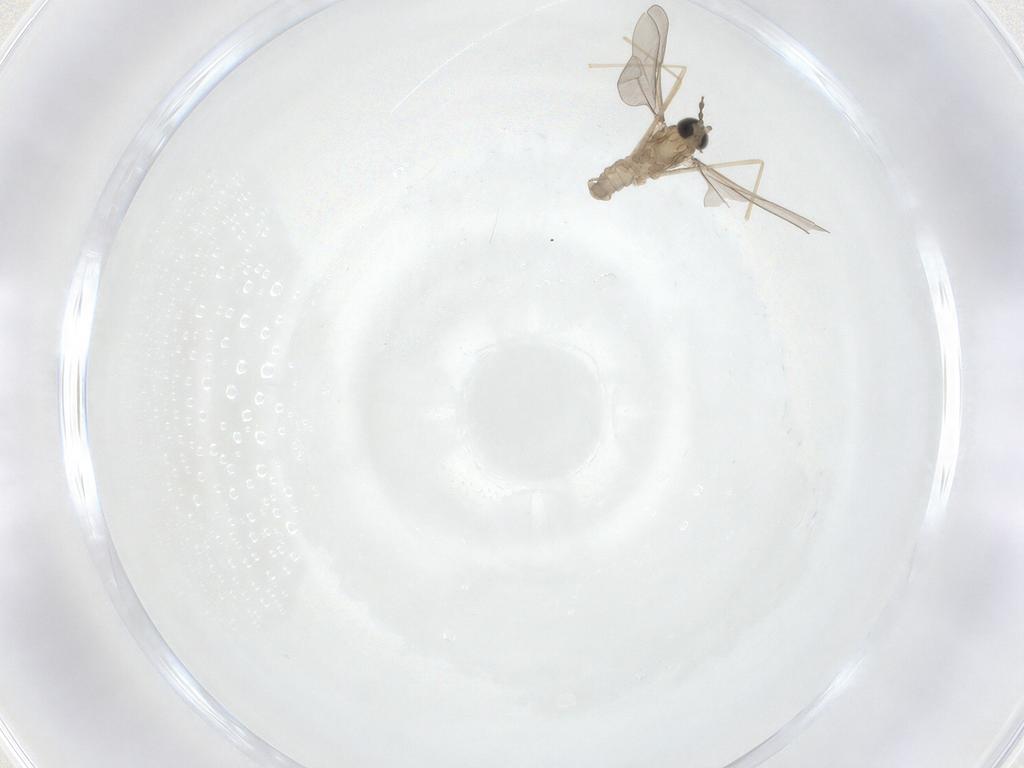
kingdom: Animalia
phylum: Arthropoda
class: Insecta
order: Diptera
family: Cecidomyiidae
